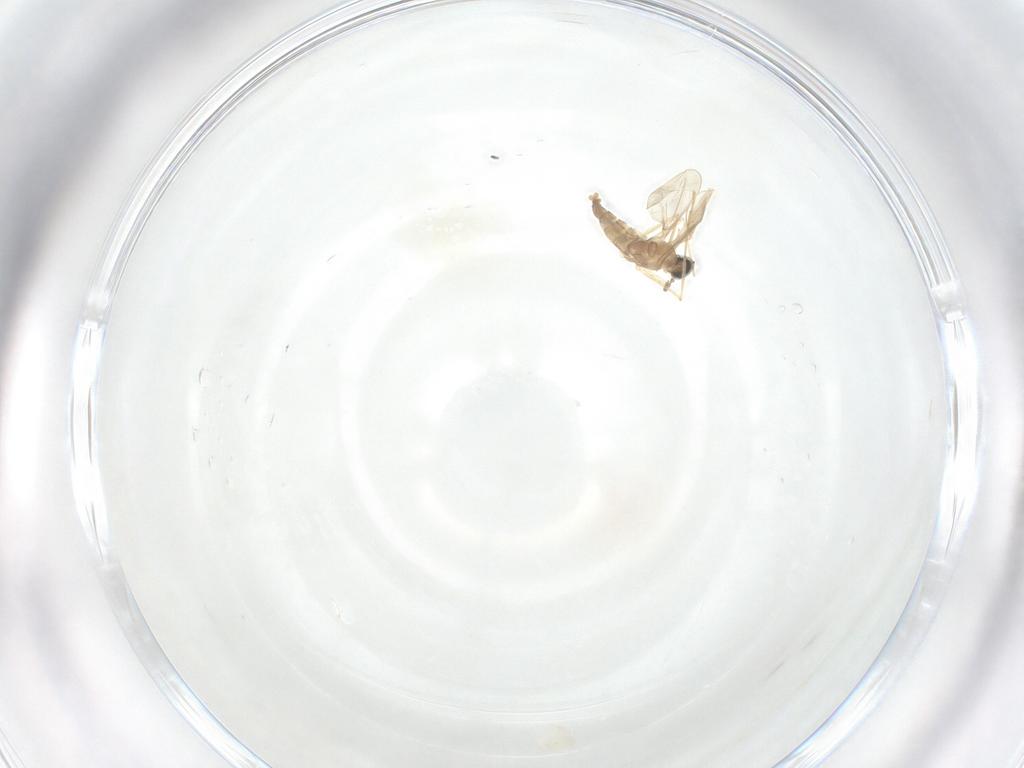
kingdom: Animalia
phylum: Arthropoda
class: Insecta
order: Diptera
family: Cecidomyiidae
